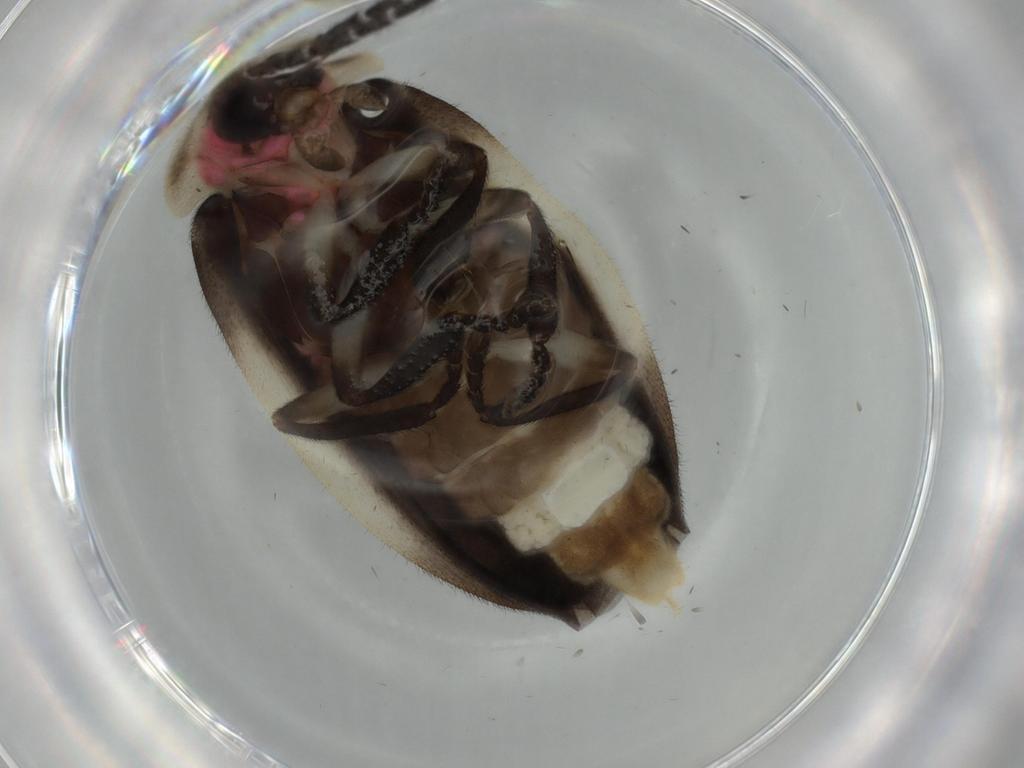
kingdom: Animalia
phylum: Arthropoda
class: Insecta
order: Coleoptera
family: Lampyridae
